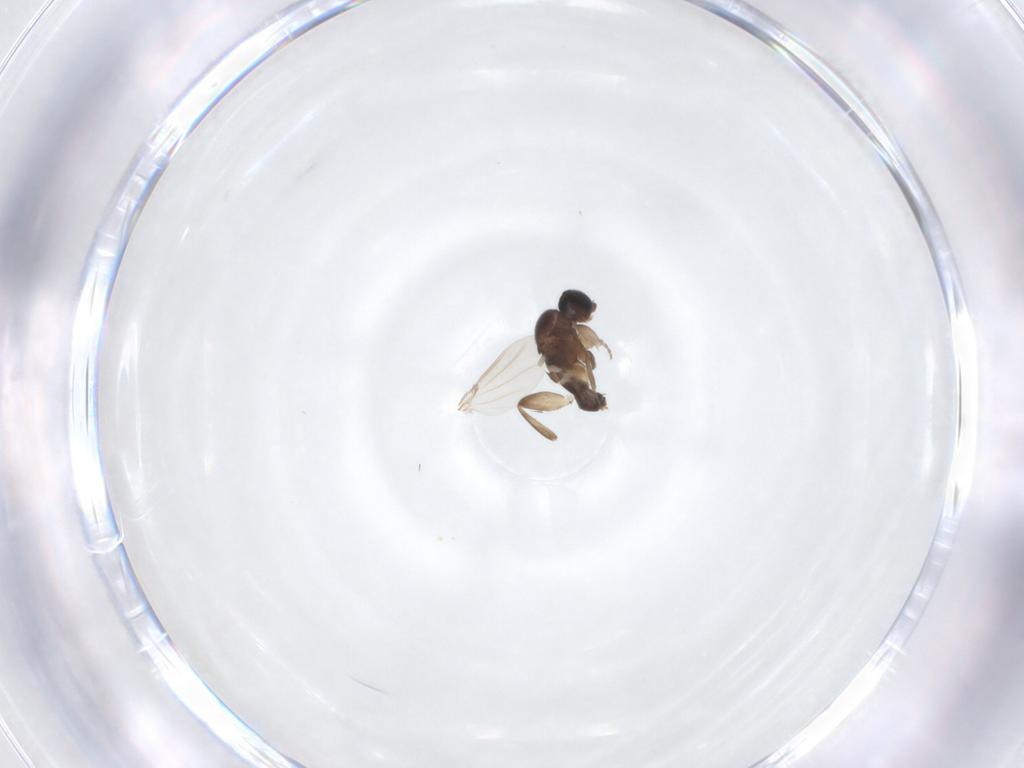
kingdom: Animalia
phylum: Arthropoda
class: Insecta
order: Diptera
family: Phoridae
